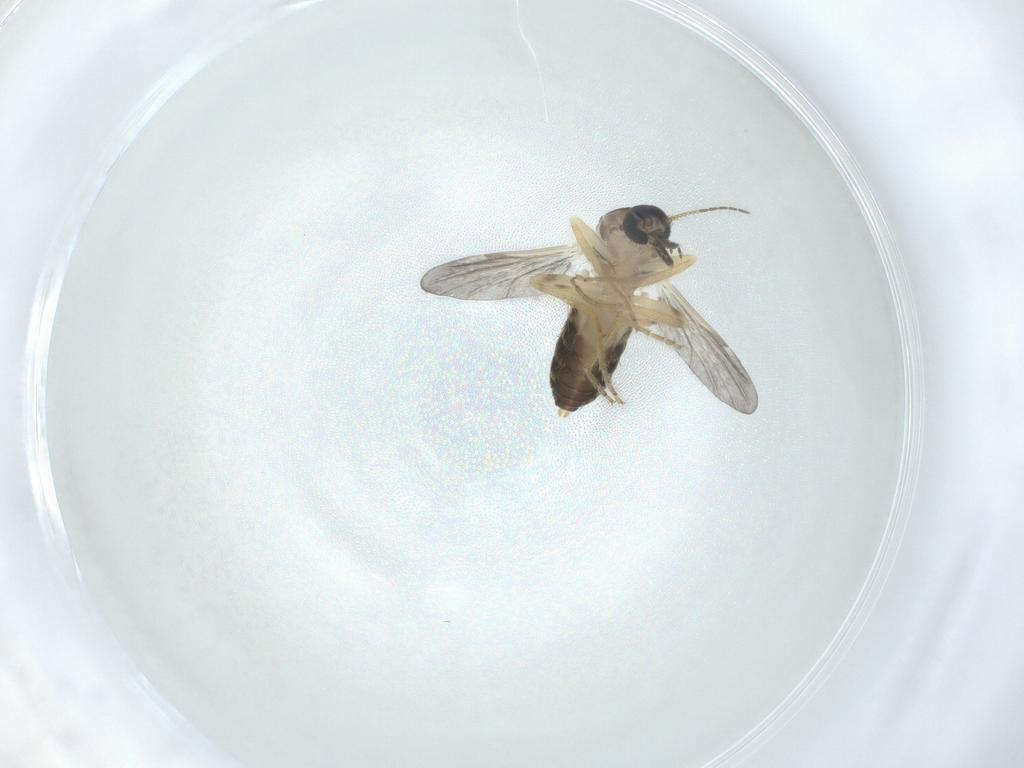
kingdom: Animalia
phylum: Arthropoda
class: Insecta
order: Diptera
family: Ceratopogonidae
